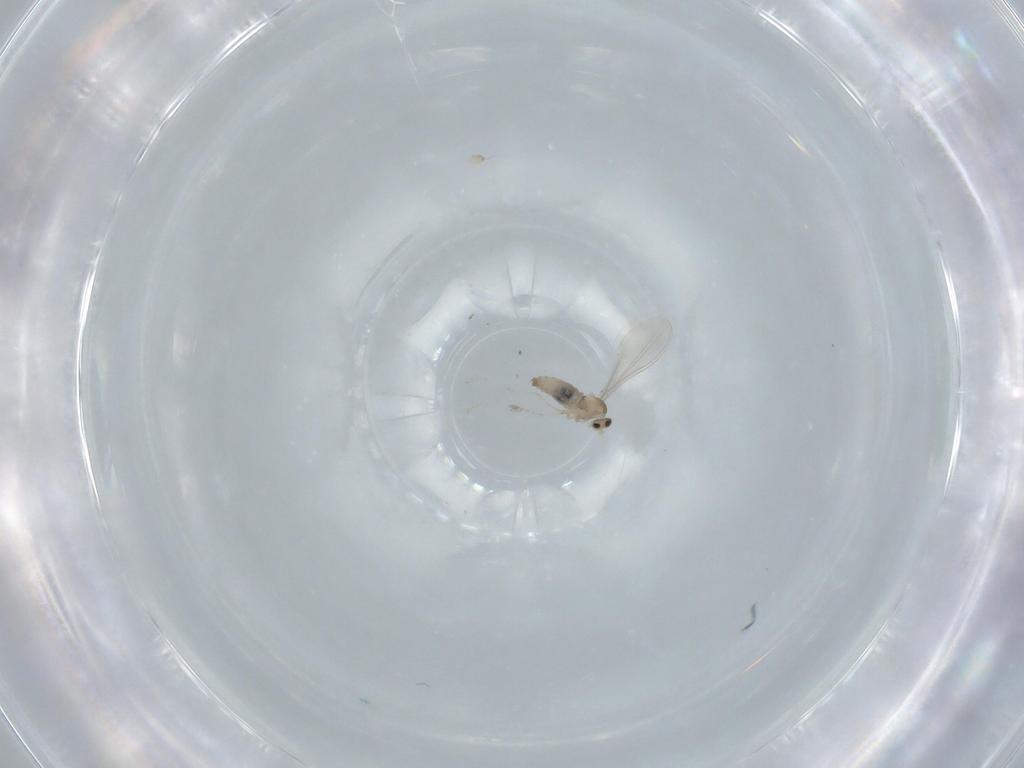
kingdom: Animalia
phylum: Arthropoda
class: Insecta
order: Diptera
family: Cecidomyiidae
